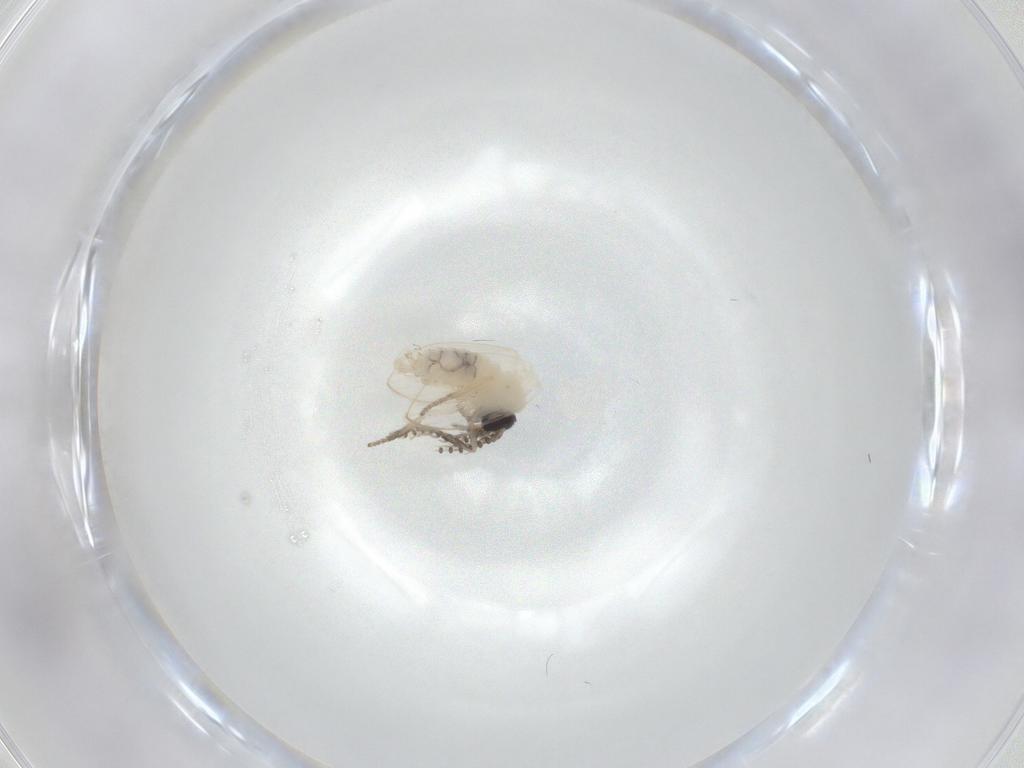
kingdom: Animalia
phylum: Arthropoda
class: Insecta
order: Diptera
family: Psychodidae
